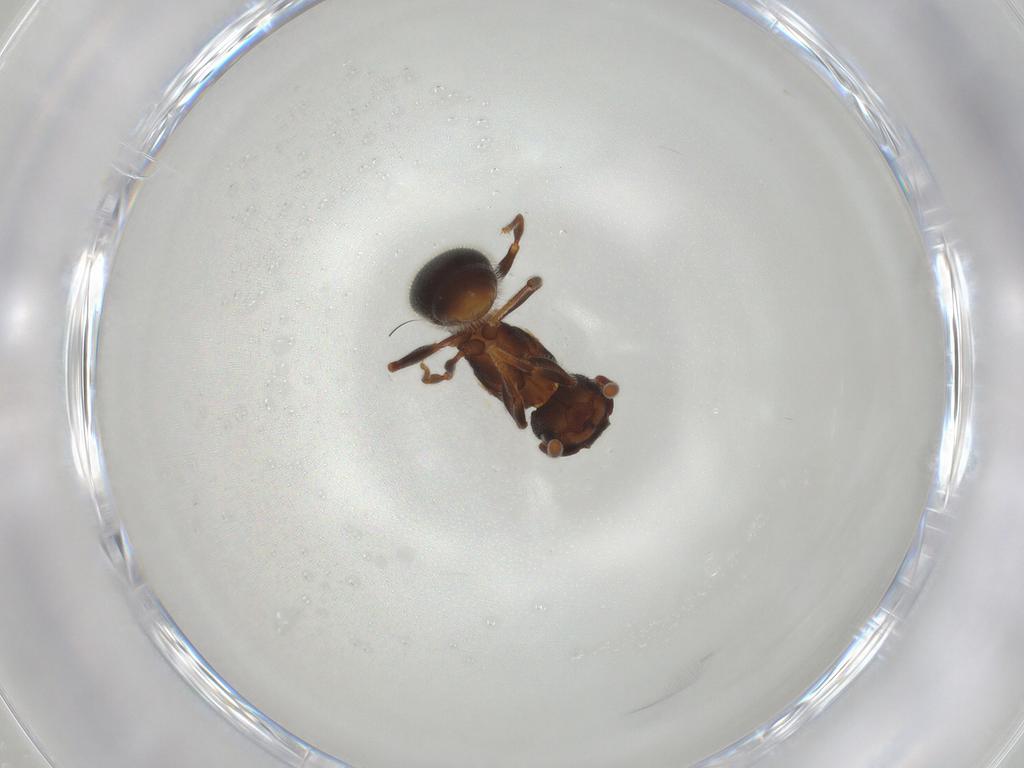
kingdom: Animalia
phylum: Arthropoda
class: Insecta
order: Hymenoptera
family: Formicidae
